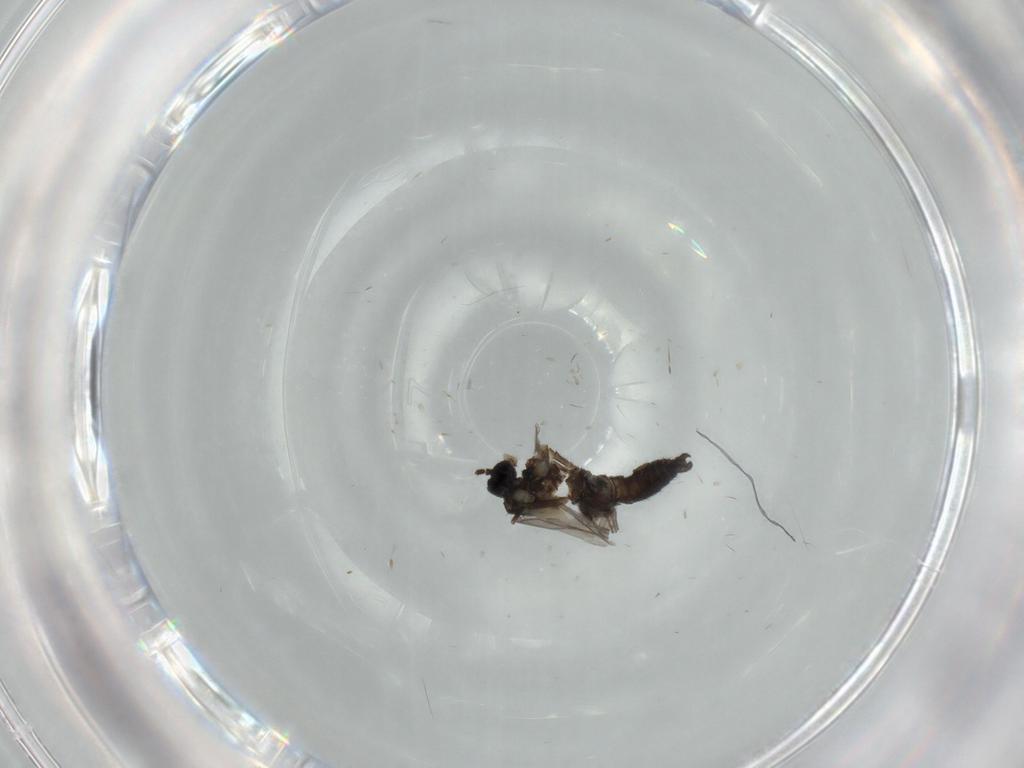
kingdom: Animalia
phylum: Arthropoda
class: Insecta
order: Diptera
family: Sciaridae
